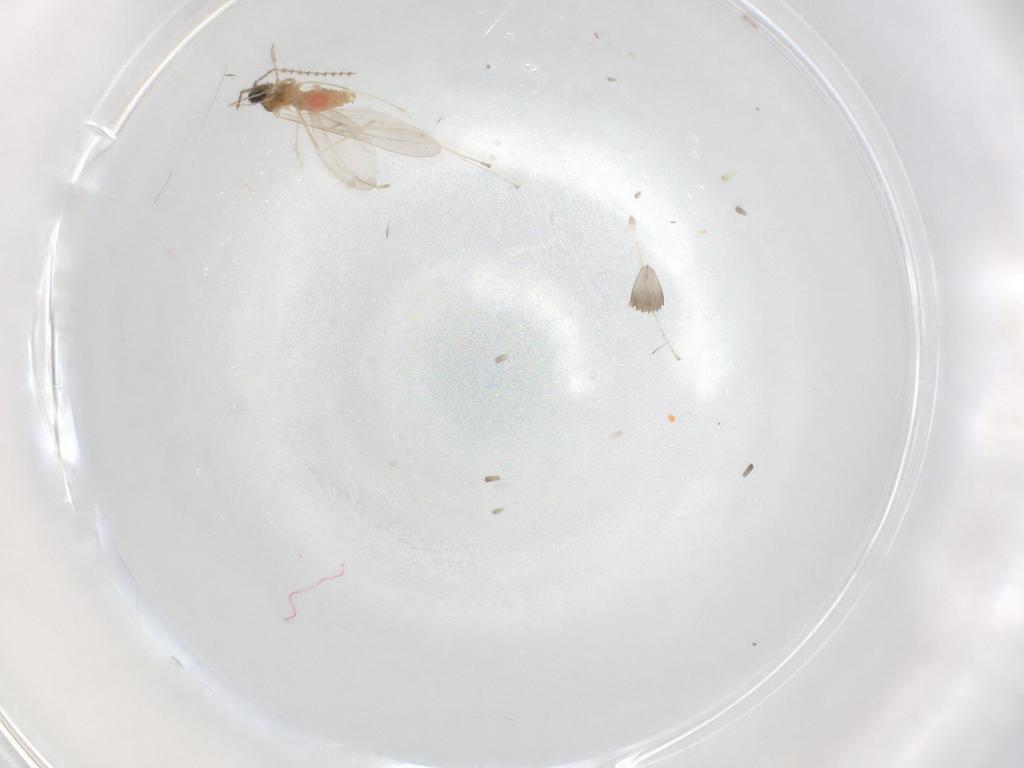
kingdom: Animalia
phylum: Arthropoda
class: Insecta
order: Diptera
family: Cecidomyiidae
